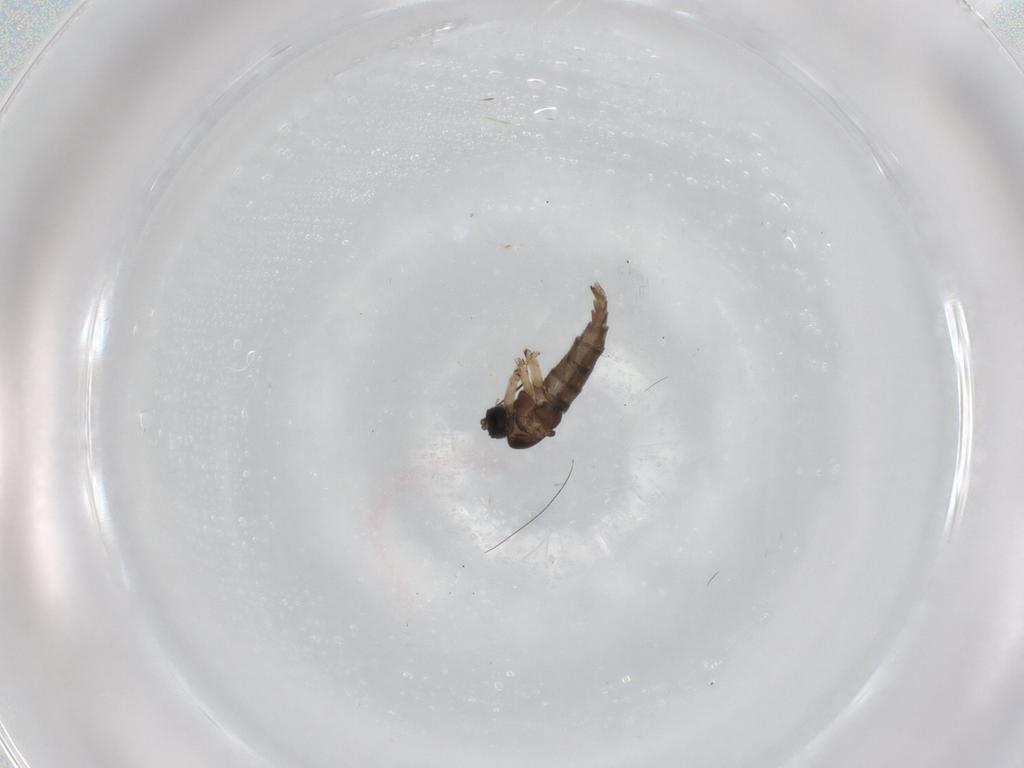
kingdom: Animalia
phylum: Arthropoda
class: Insecta
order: Diptera
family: Sciaridae
